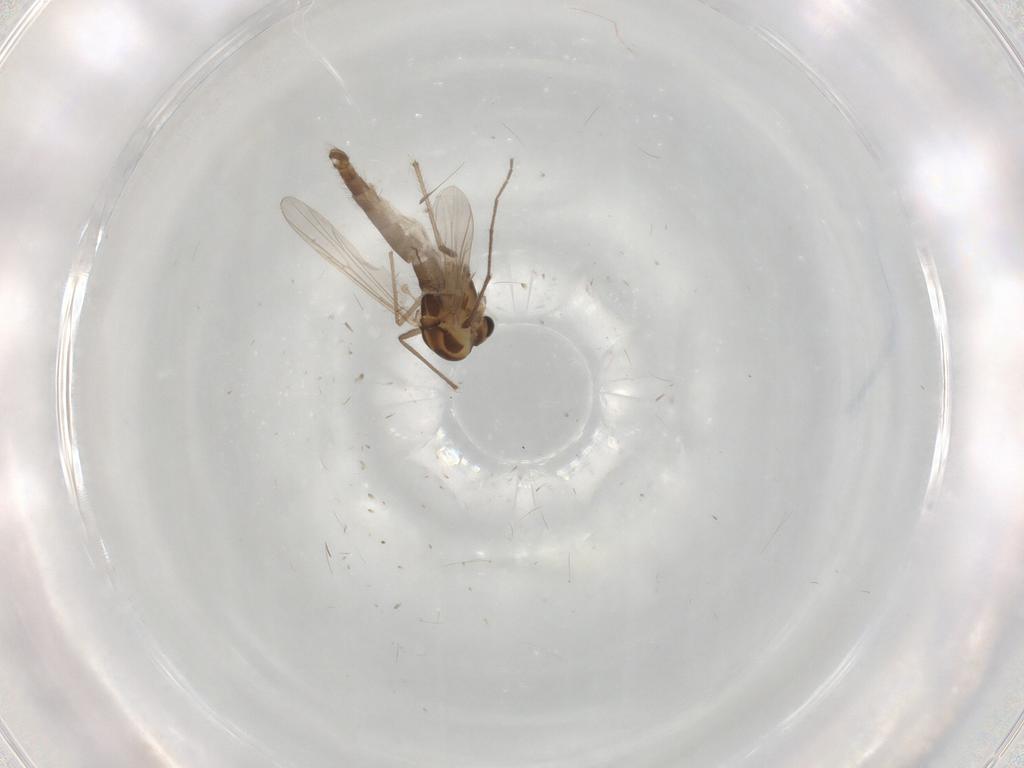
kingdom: Animalia
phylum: Arthropoda
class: Insecta
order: Diptera
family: Chironomidae
